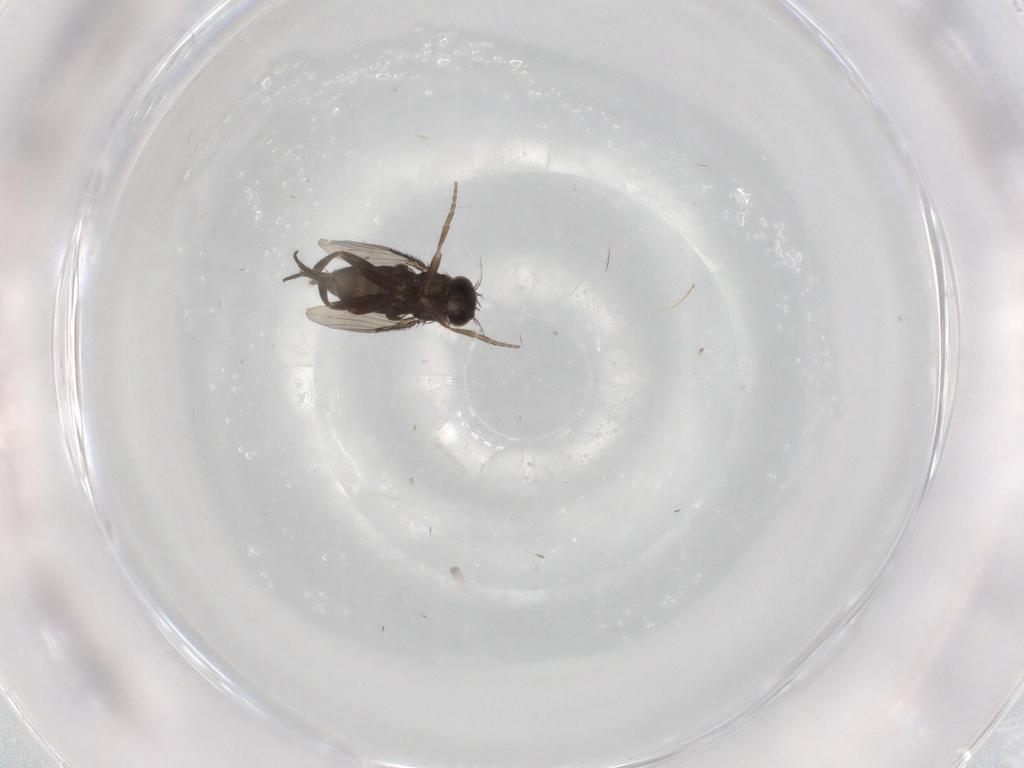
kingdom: Animalia
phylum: Arthropoda
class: Insecta
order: Diptera
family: Phoridae
